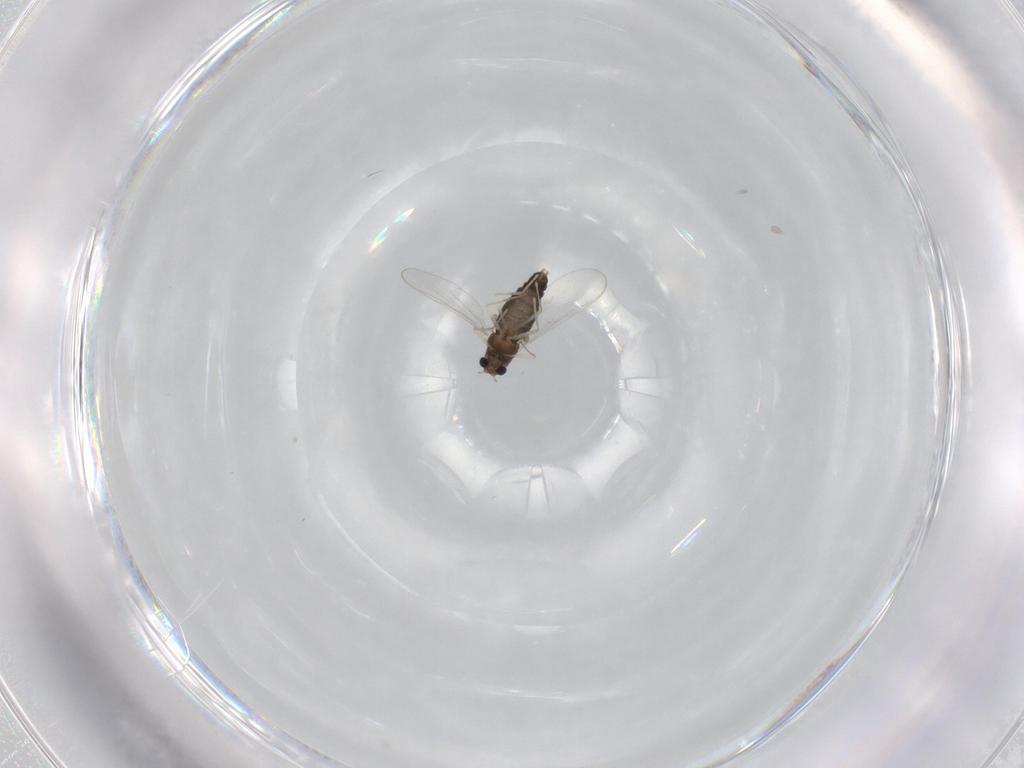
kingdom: Animalia
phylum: Arthropoda
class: Insecta
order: Diptera
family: Chironomidae
